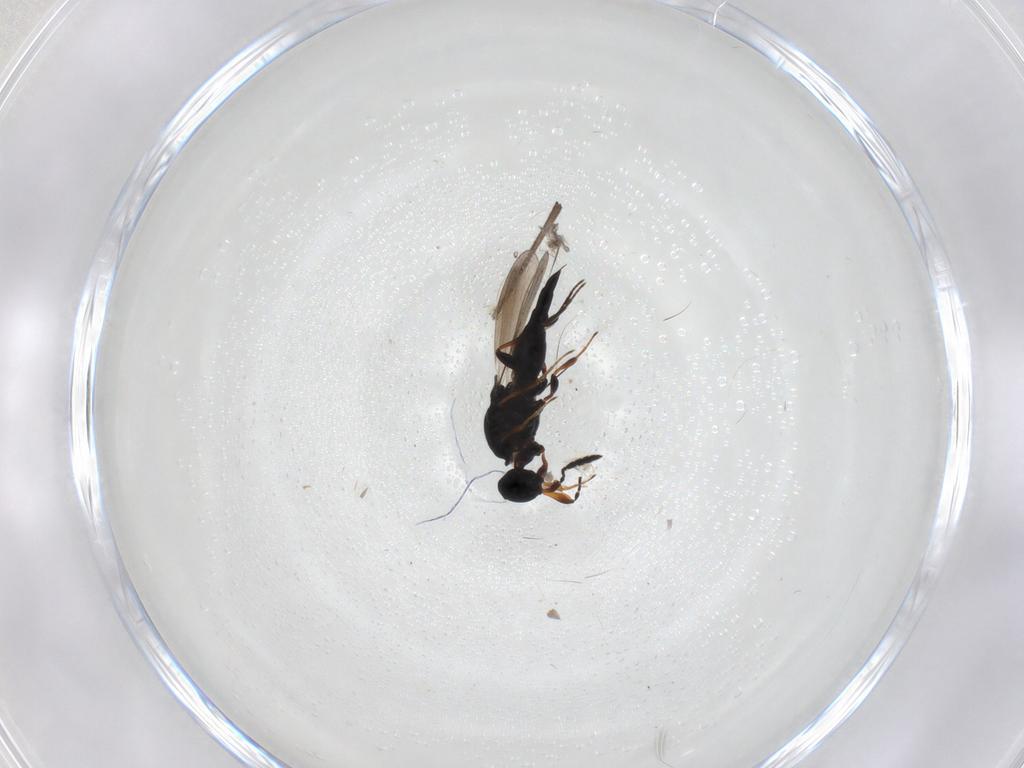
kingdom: Animalia
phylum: Arthropoda
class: Insecta
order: Hymenoptera
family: Platygastridae
